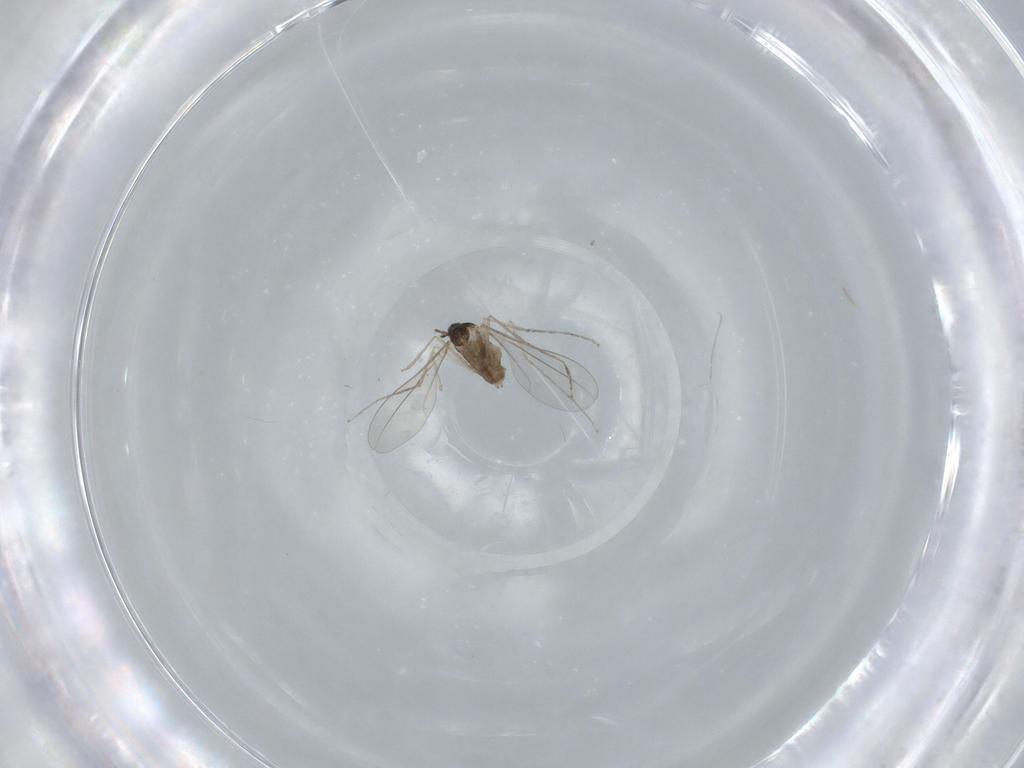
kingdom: Animalia
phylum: Arthropoda
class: Insecta
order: Diptera
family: Cecidomyiidae
